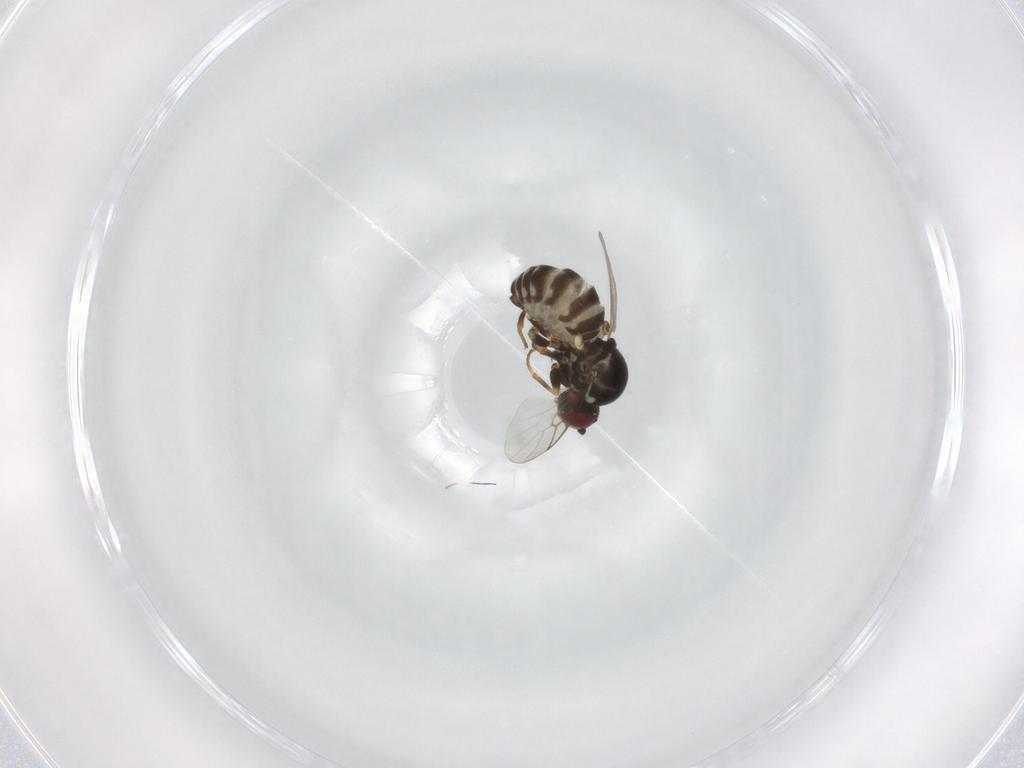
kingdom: Animalia
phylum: Arthropoda
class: Insecta
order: Diptera
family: Bombyliidae
